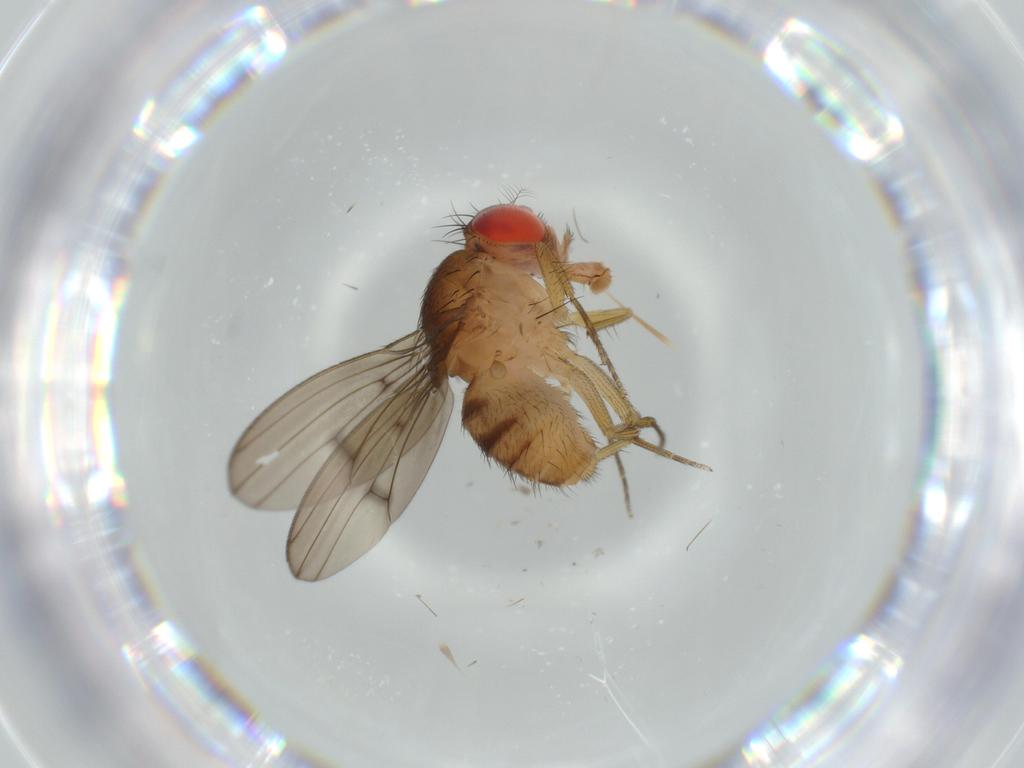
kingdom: Animalia
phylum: Arthropoda
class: Insecta
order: Diptera
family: Drosophilidae
